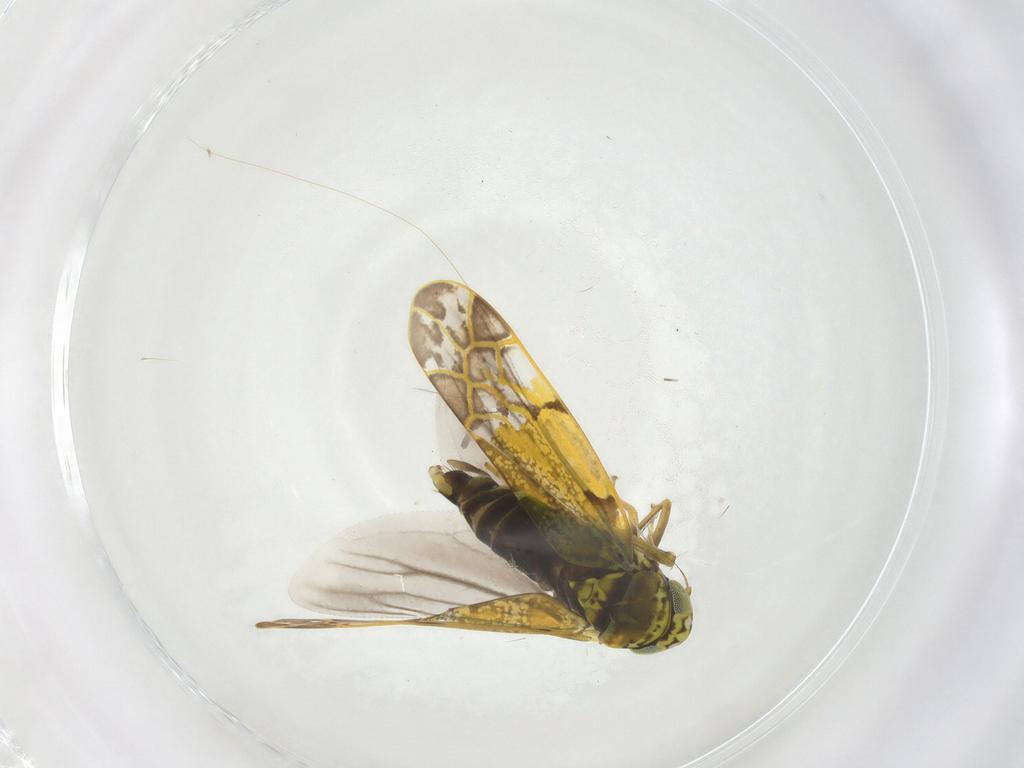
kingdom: Animalia
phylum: Arthropoda
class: Insecta
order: Hemiptera
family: Cicadellidae
